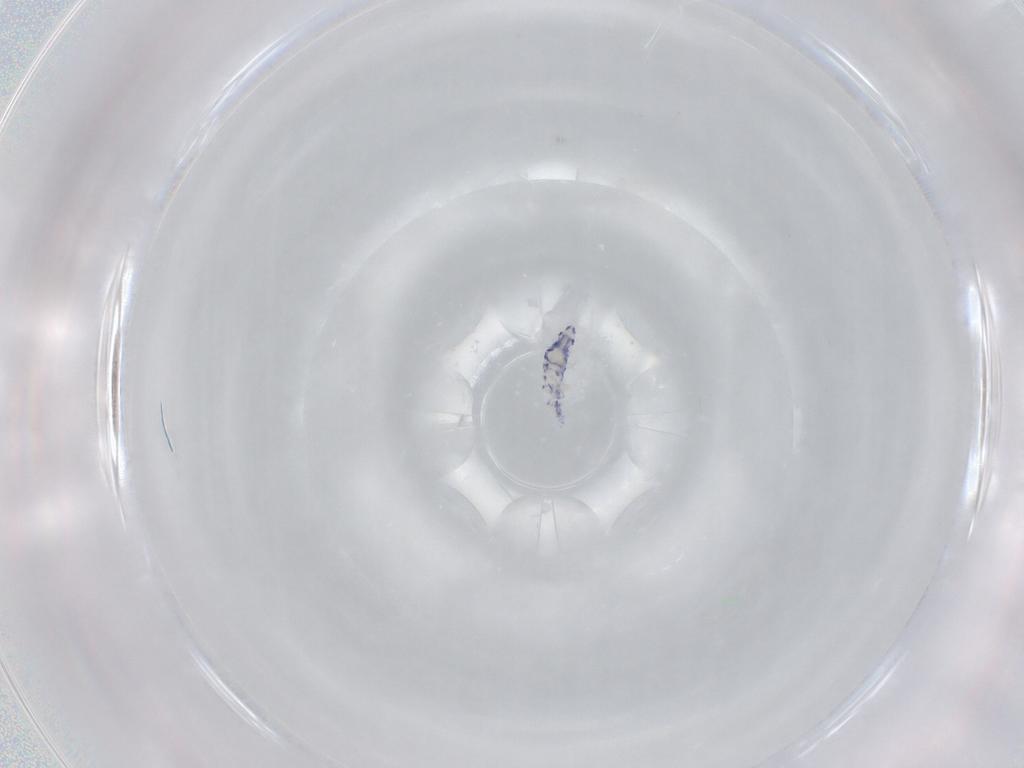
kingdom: Animalia
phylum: Arthropoda
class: Collembola
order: Entomobryomorpha
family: Entomobryidae
